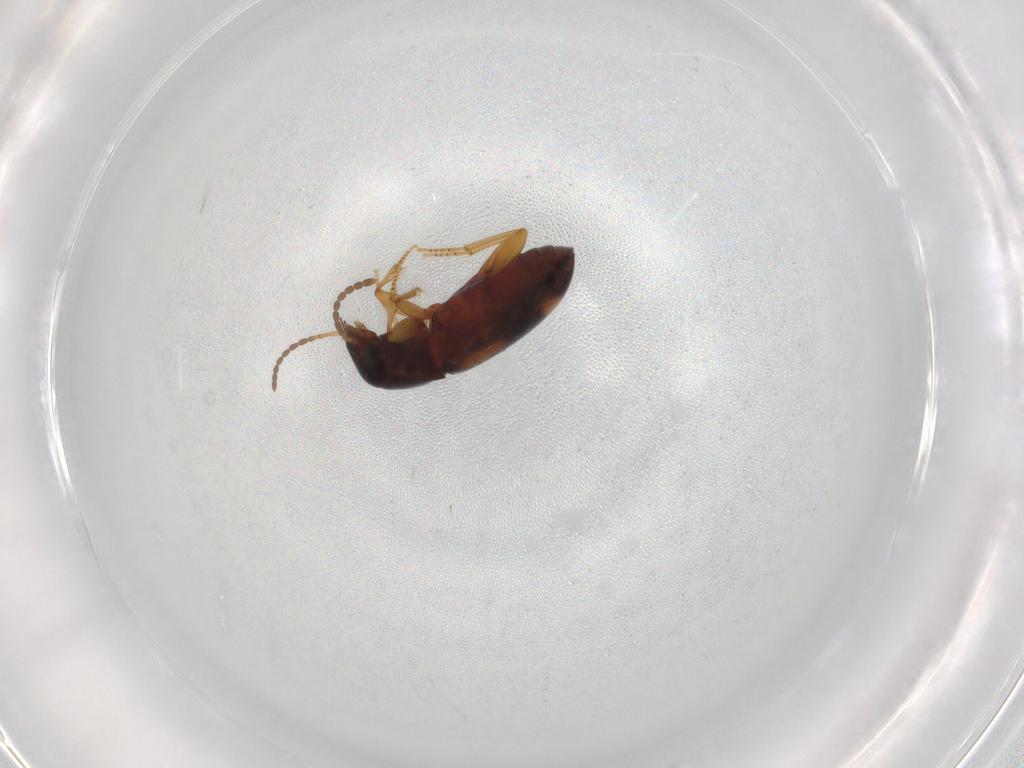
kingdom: Animalia
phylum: Arthropoda
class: Insecta
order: Coleoptera
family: Carabidae
